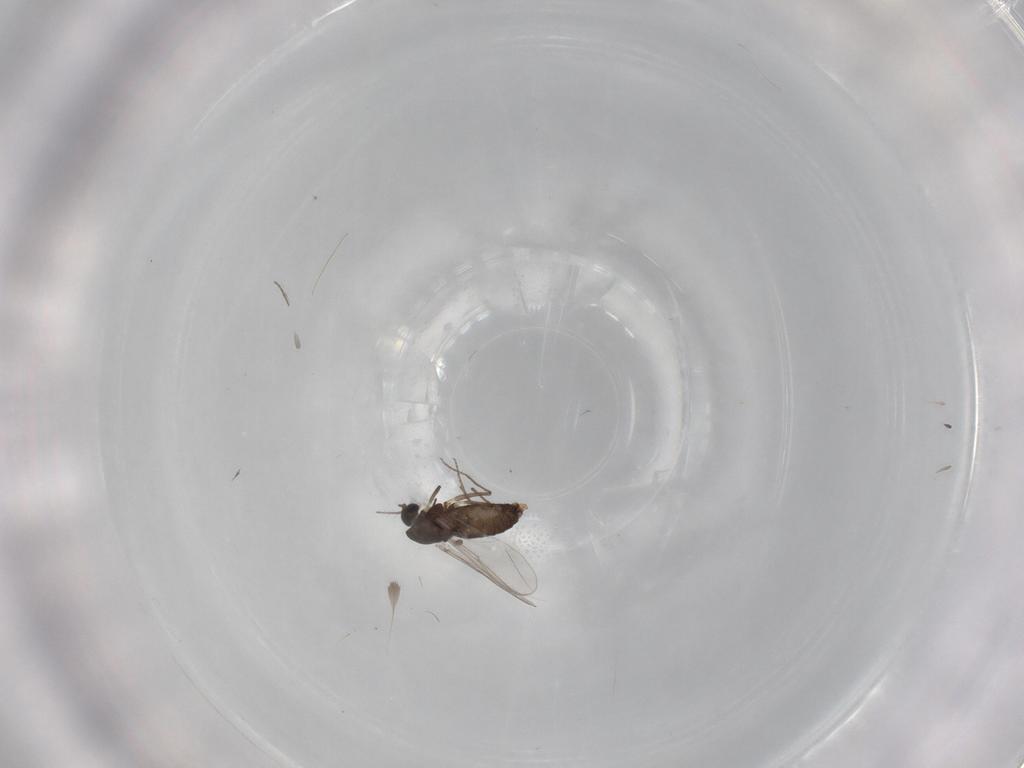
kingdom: Animalia
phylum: Arthropoda
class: Insecta
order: Diptera
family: Chironomidae
